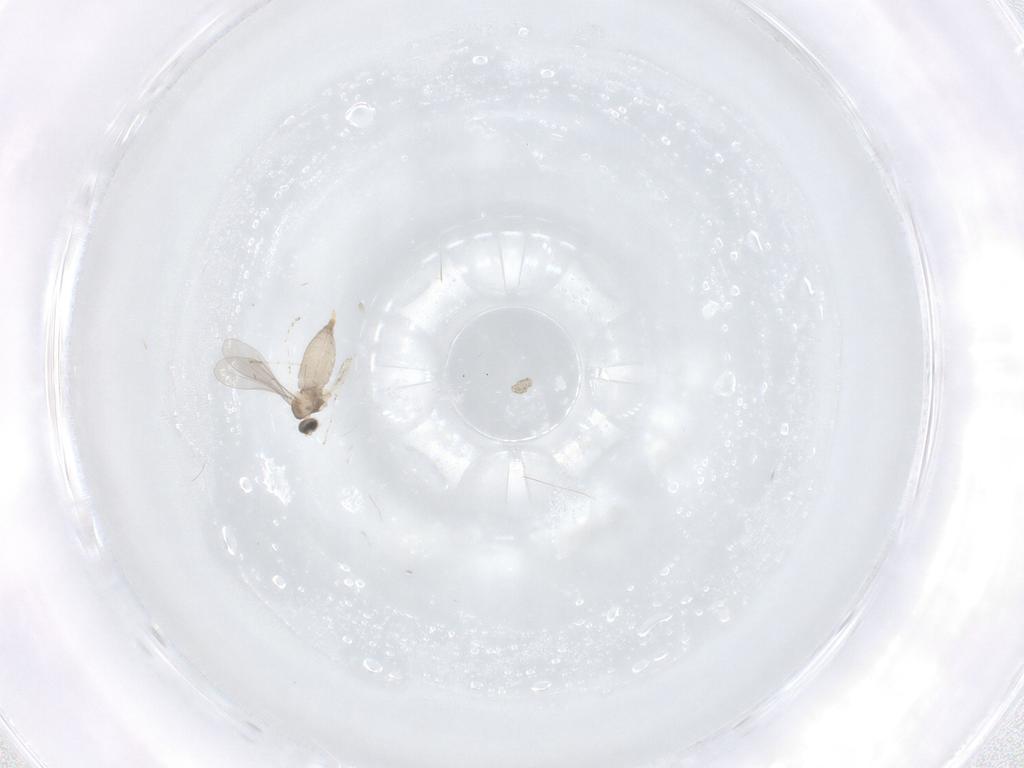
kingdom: Animalia
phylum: Arthropoda
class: Insecta
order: Diptera
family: Cecidomyiidae
